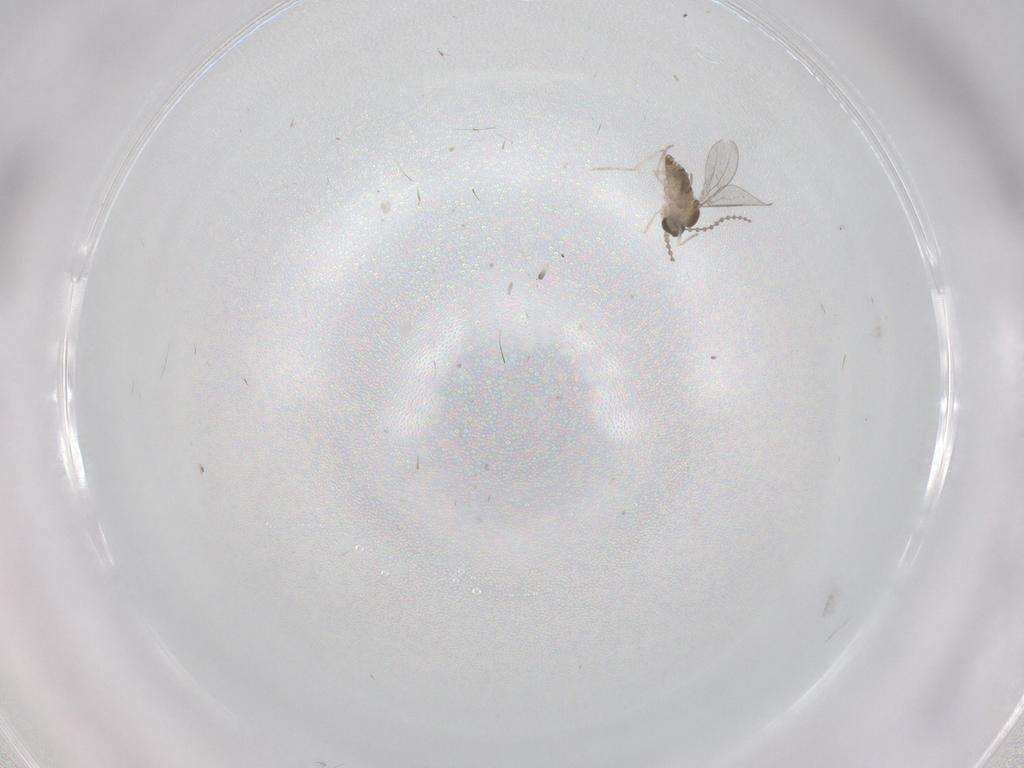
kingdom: Animalia
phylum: Arthropoda
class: Insecta
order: Diptera
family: Cecidomyiidae
